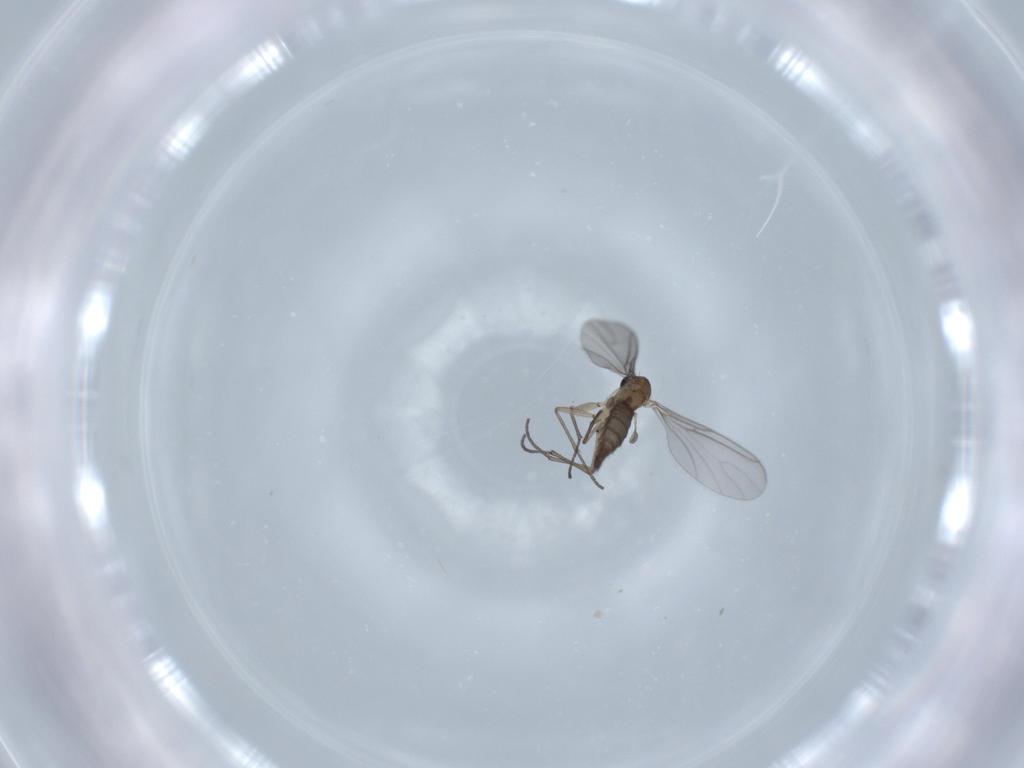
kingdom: Animalia
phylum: Arthropoda
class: Insecta
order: Diptera
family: Sciaridae
